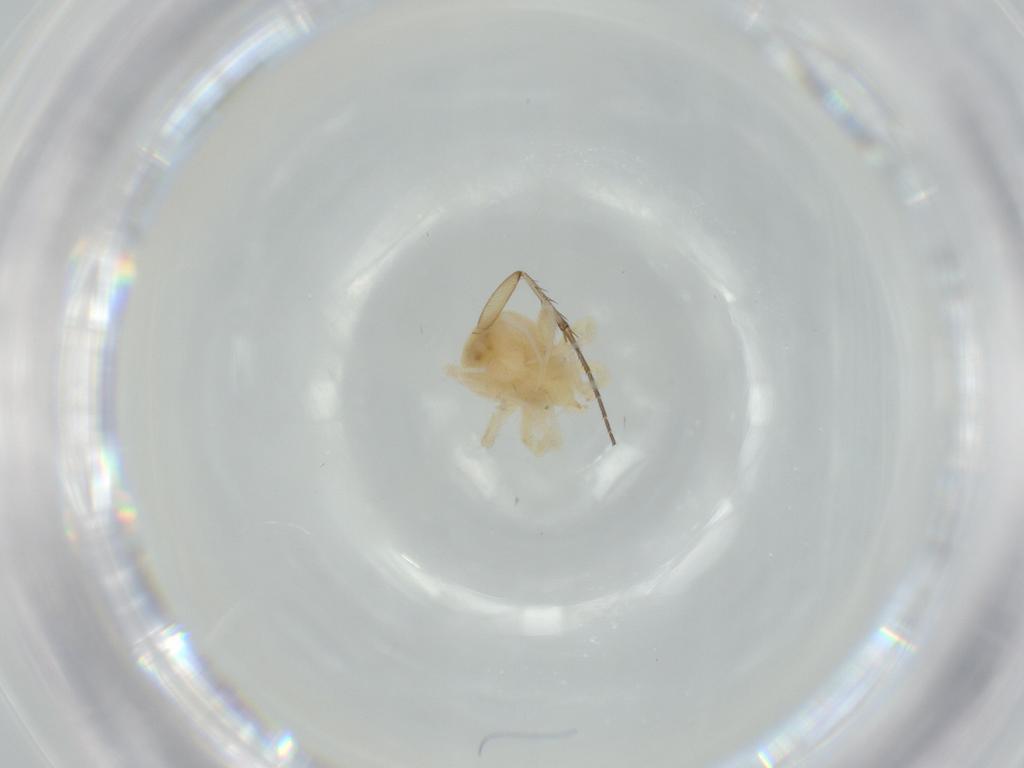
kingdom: Animalia
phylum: Arthropoda
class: Arachnida
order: Trombidiformes
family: Anystidae
